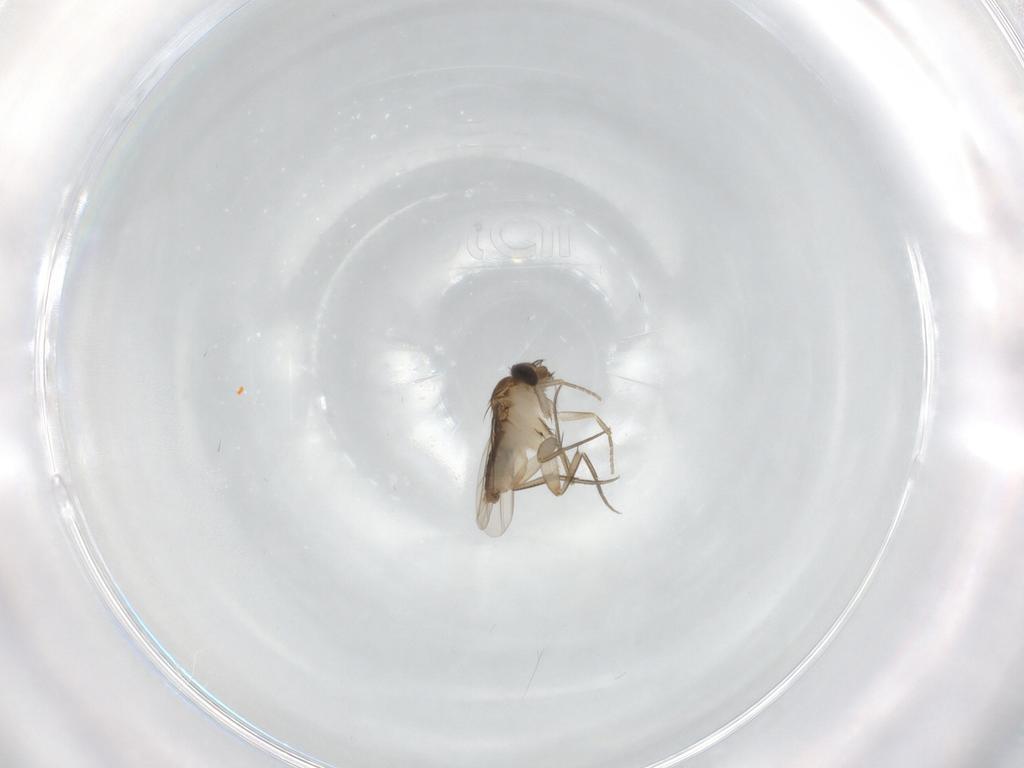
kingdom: Animalia
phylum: Arthropoda
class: Insecta
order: Diptera
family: Phoridae
